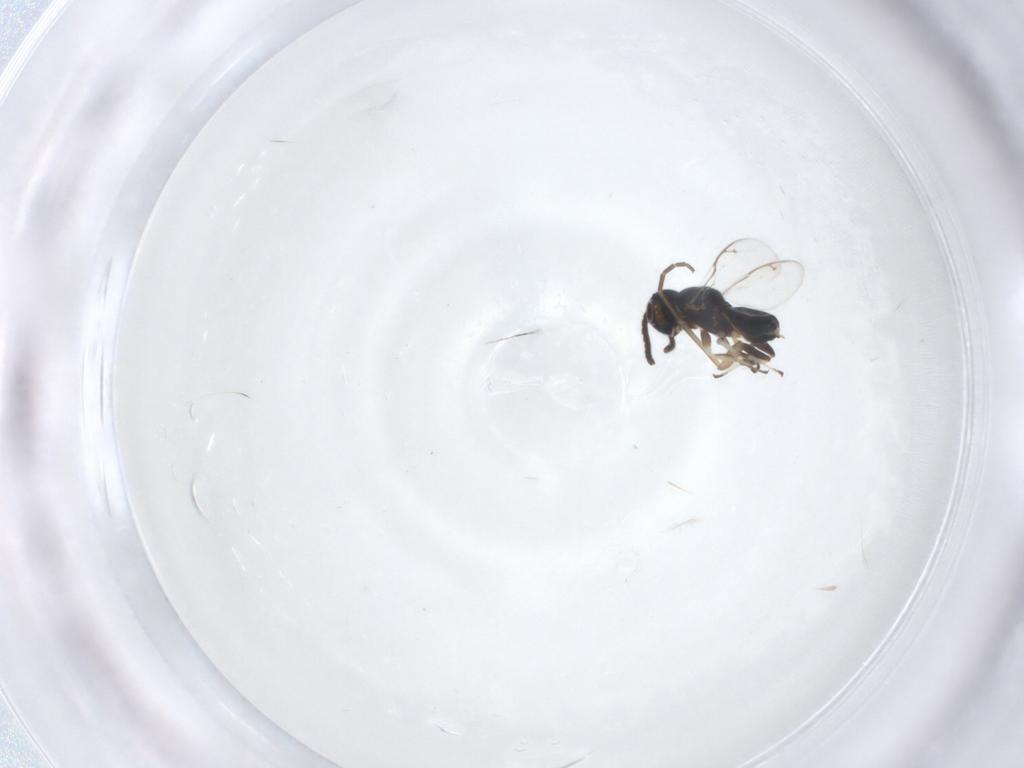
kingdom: Animalia
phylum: Arthropoda
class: Insecta
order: Hymenoptera
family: Eupelmidae
